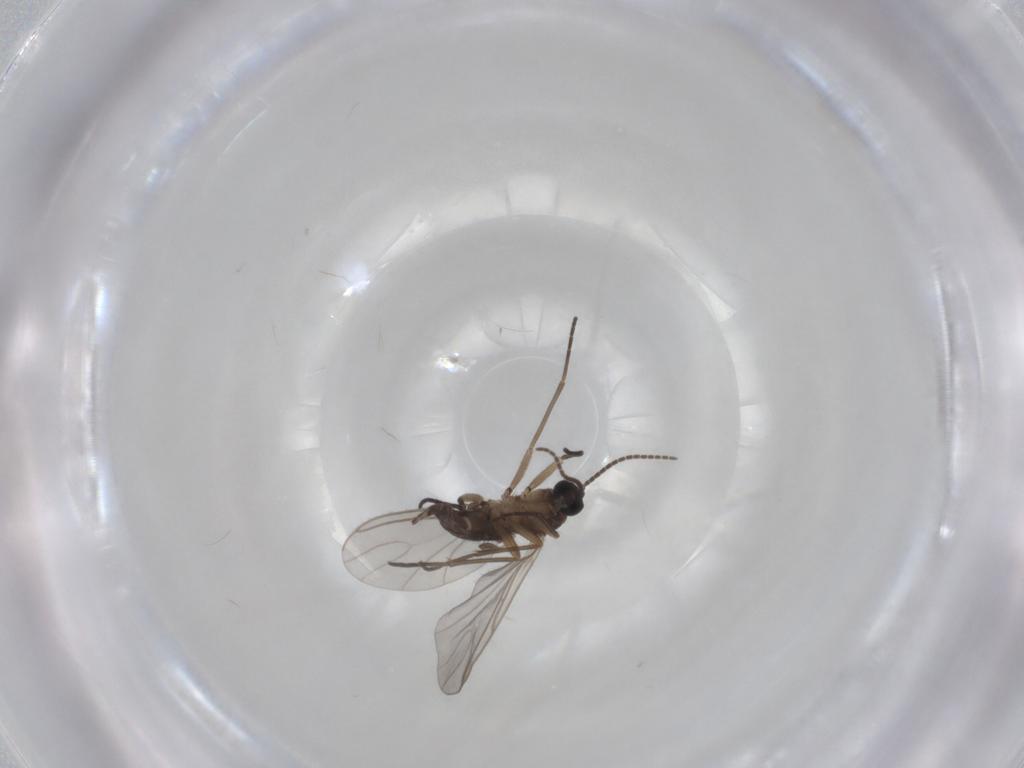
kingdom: Animalia
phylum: Arthropoda
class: Insecta
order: Diptera
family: Sciaridae
